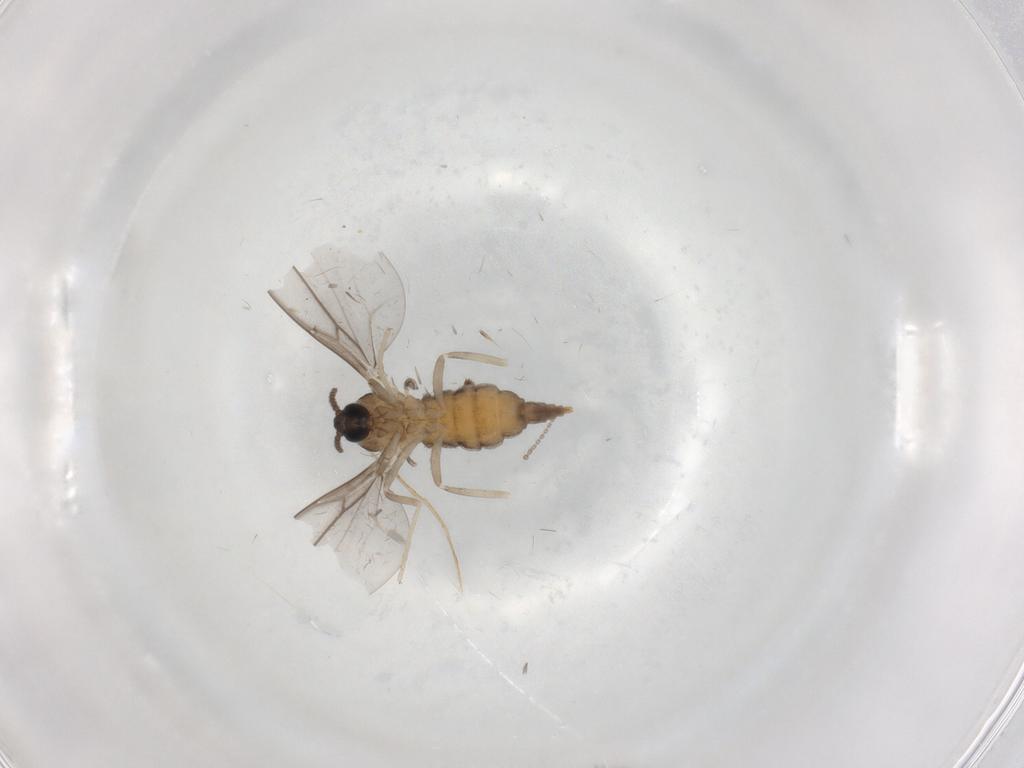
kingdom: Animalia
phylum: Arthropoda
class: Insecta
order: Diptera
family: Cecidomyiidae
